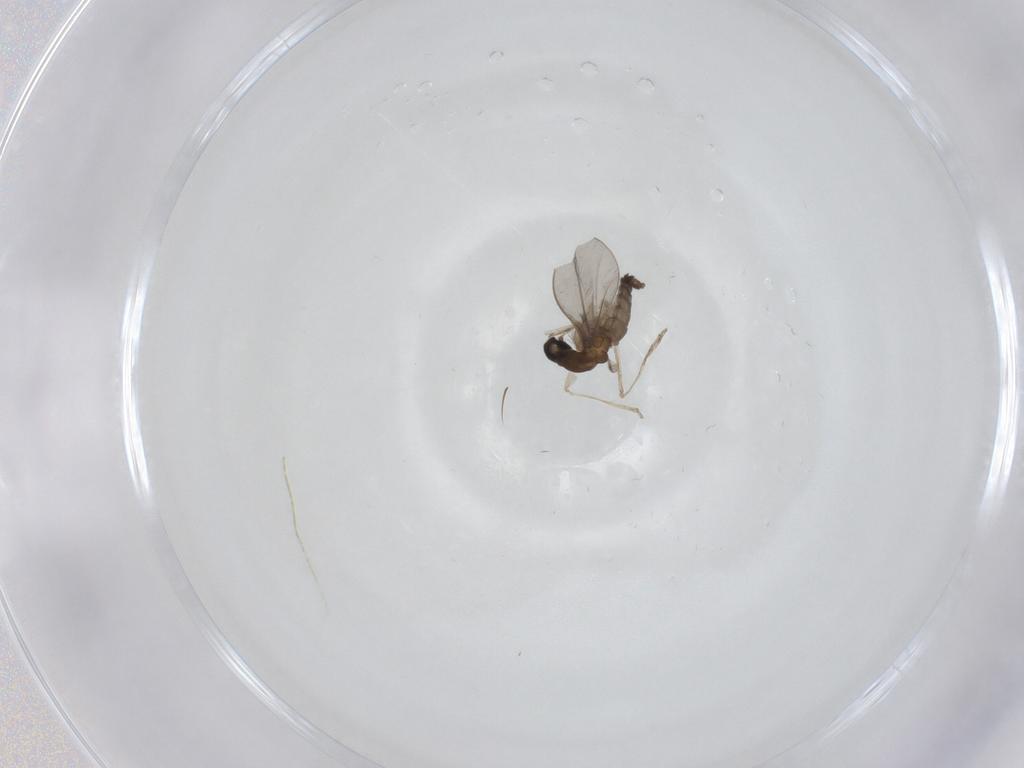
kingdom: Animalia
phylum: Arthropoda
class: Insecta
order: Diptera
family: Cecidomyiidae
